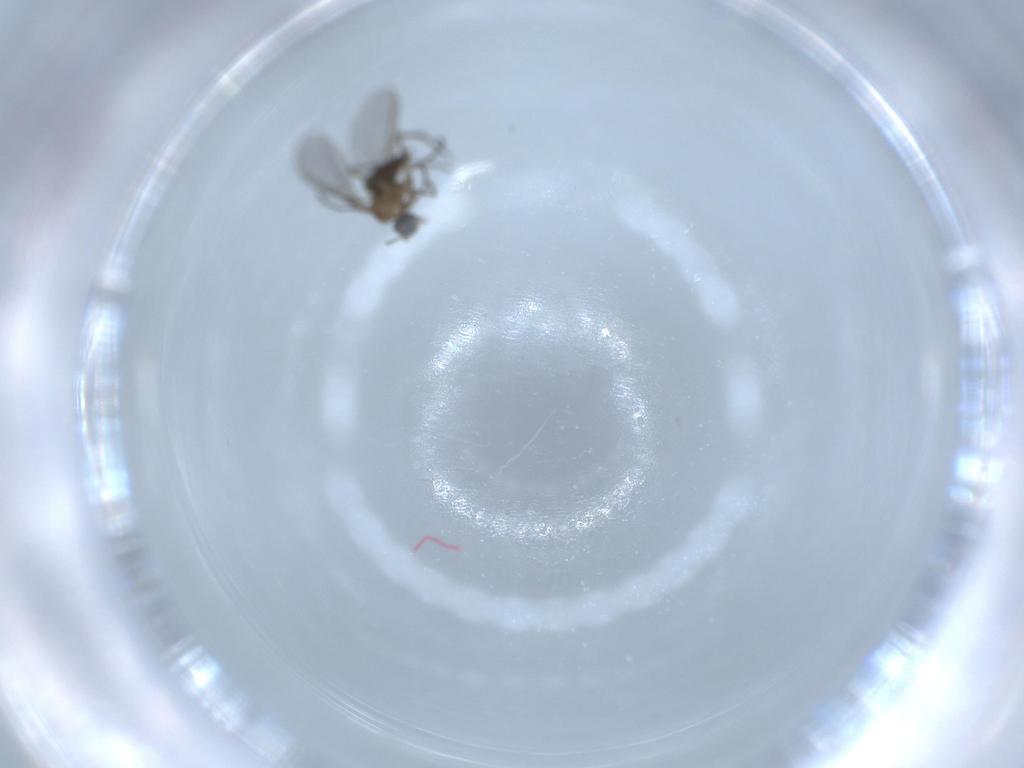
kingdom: Animalia
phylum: Arthropoda
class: Insecta
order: Diptera
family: Sciaridae
